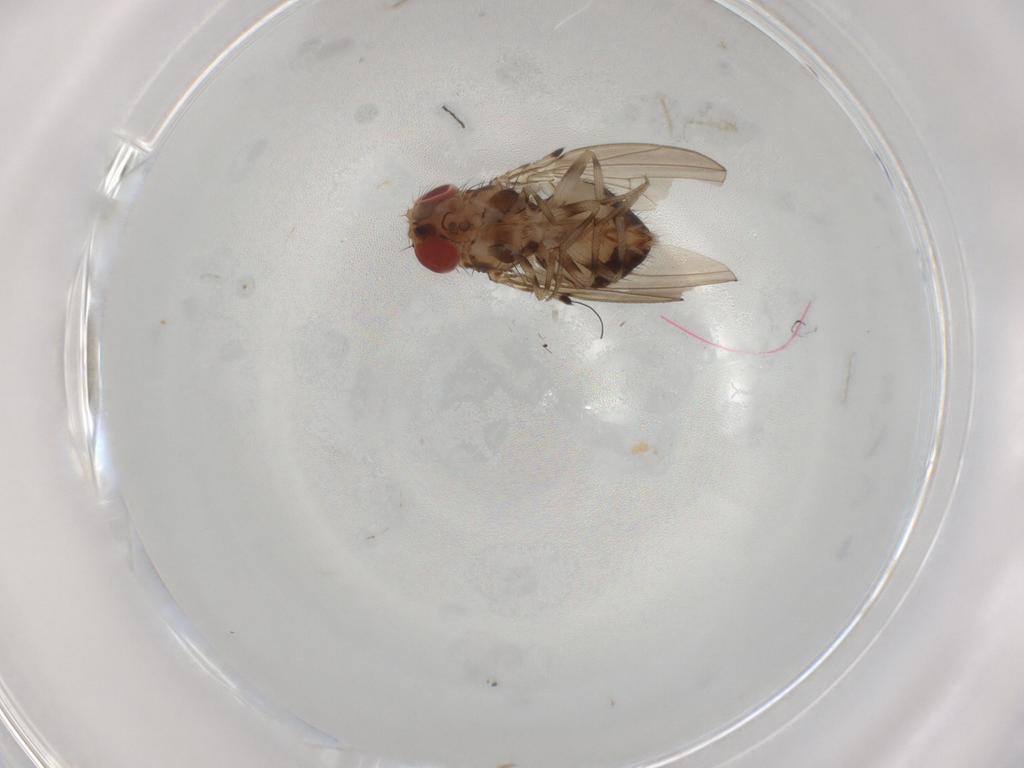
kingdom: Animalia
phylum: Arthropoda
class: Insecta
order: Diptera
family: Drosophilidae
